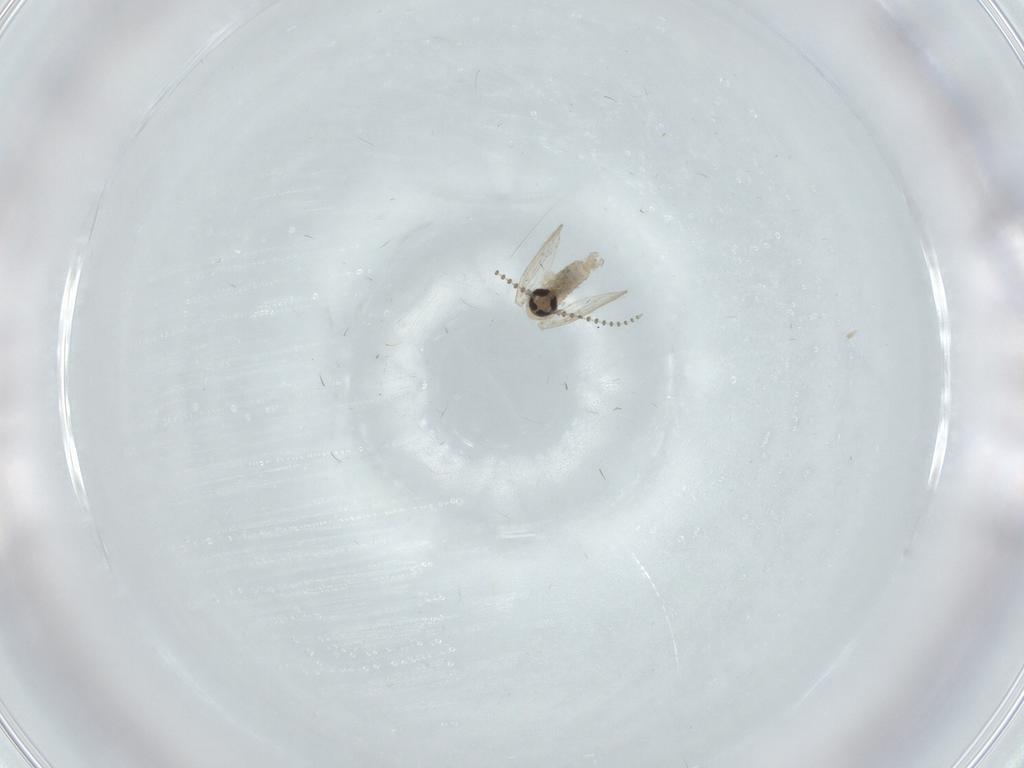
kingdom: Animalia
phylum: Arthropoda
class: Insecta
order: Diptera
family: Psychodidae
